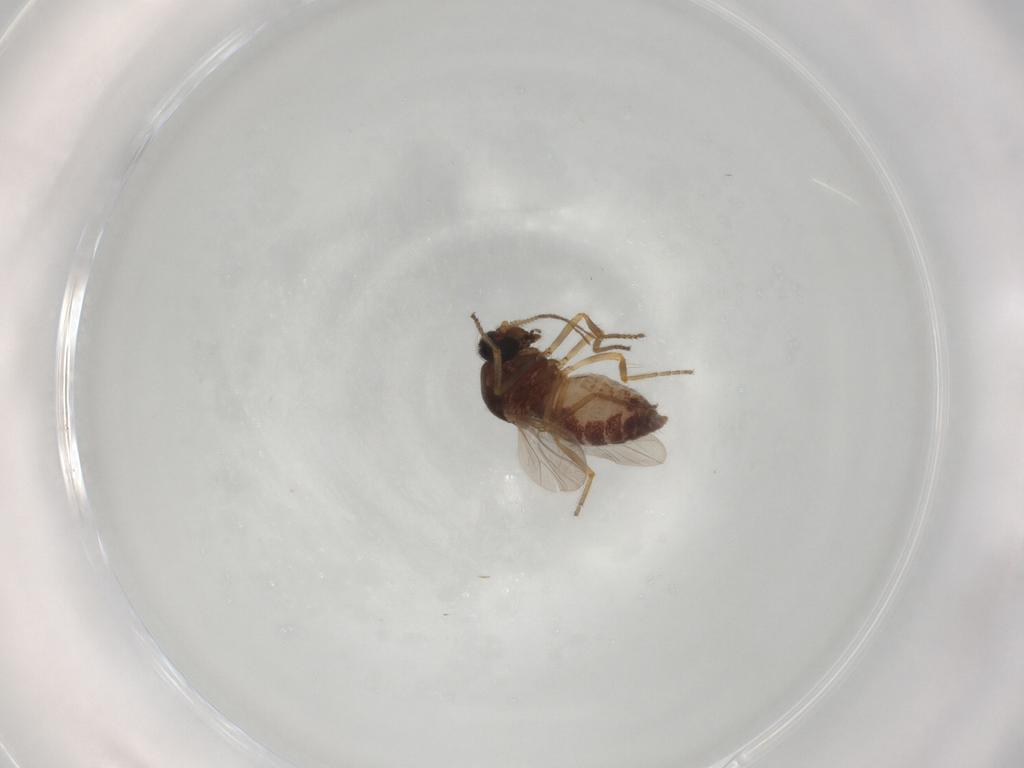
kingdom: Animalia
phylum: Arthropoda
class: Insecta
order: Diptera
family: Ceratopogonidae
